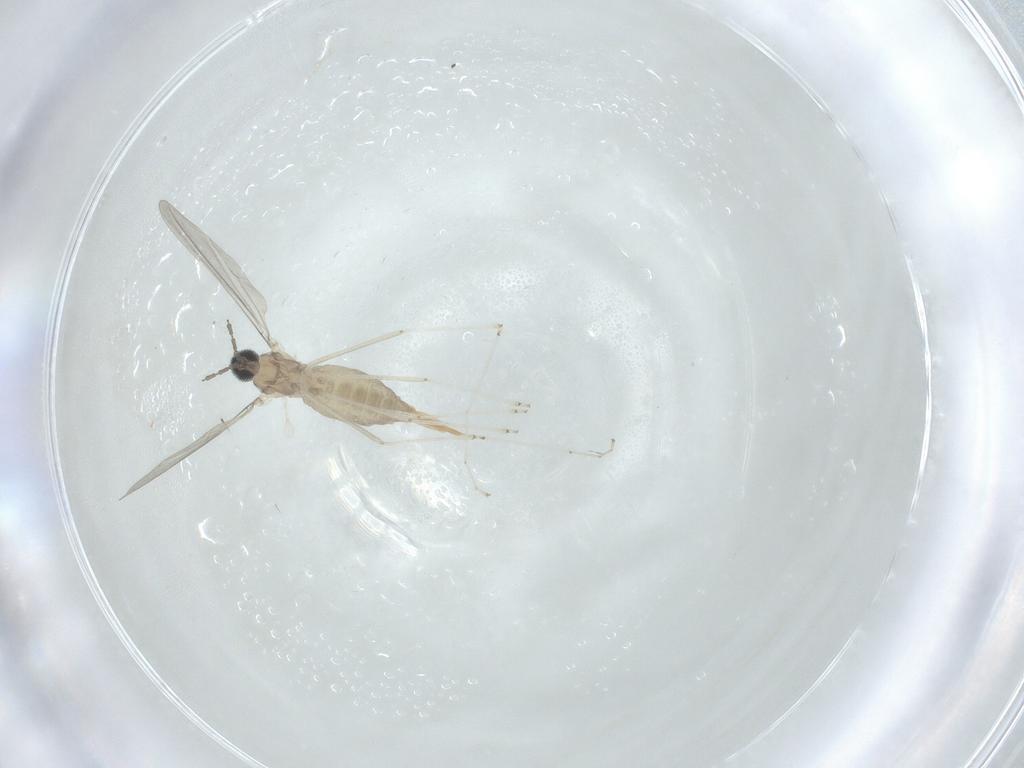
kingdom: Animalia
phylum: Arthropoda
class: Insecta
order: Diptera
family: Cecidomyiidae
